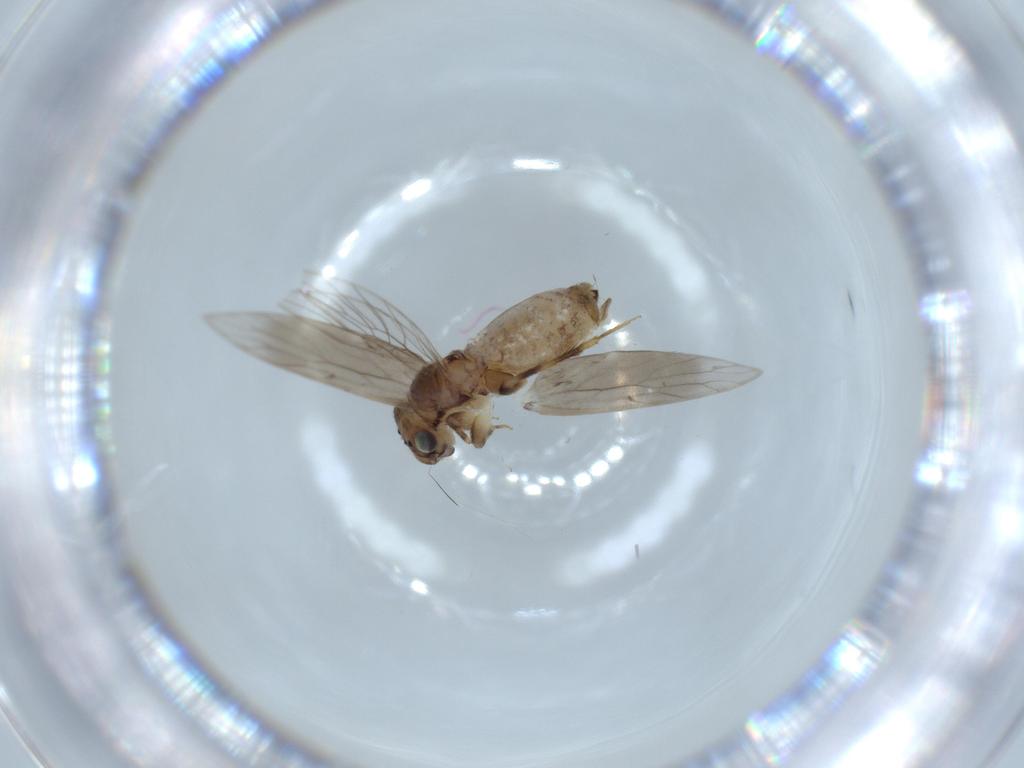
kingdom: Animalia
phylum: Arthropoda
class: Insecta
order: Psocodea
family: Lepidopsocidae
